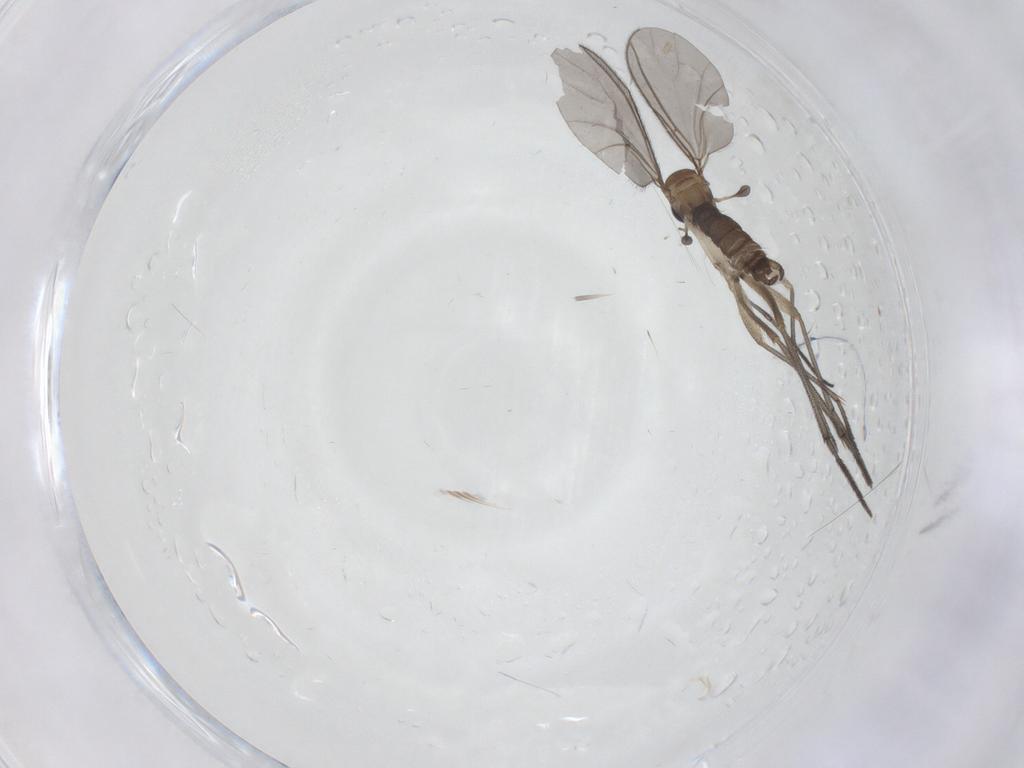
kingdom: Animalia
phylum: Arthropoda
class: Insecta
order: Diptera
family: Sciaridae
